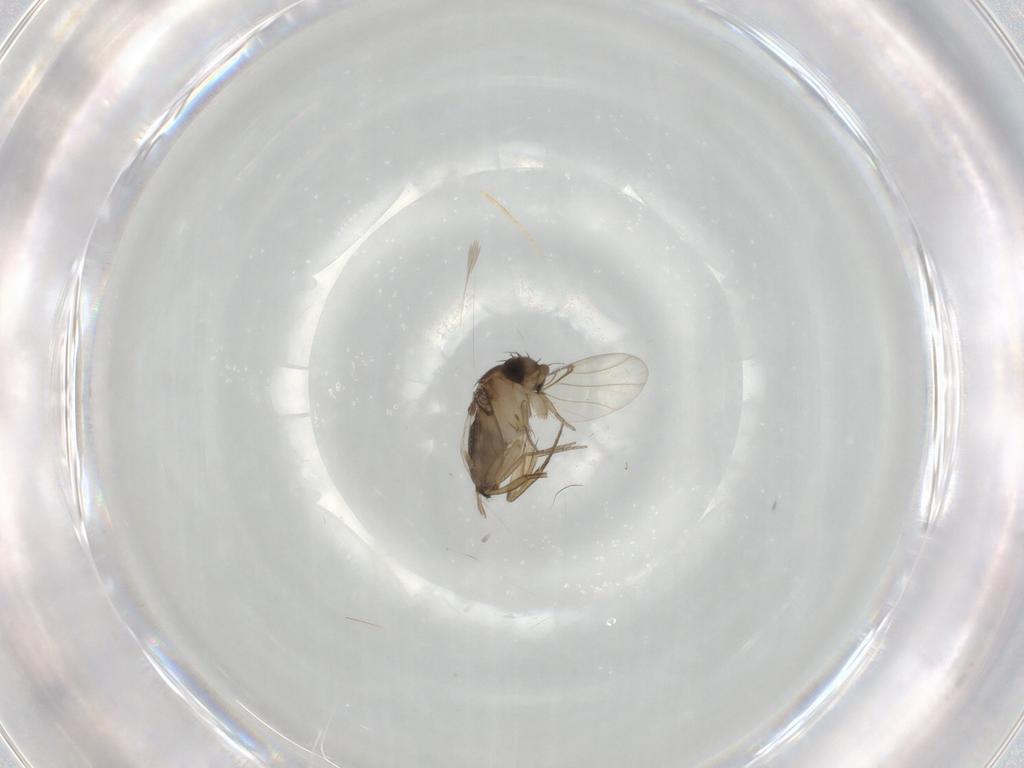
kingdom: Animalia
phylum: Arthropoda
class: Insecta
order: Diptera
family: Phoridae
